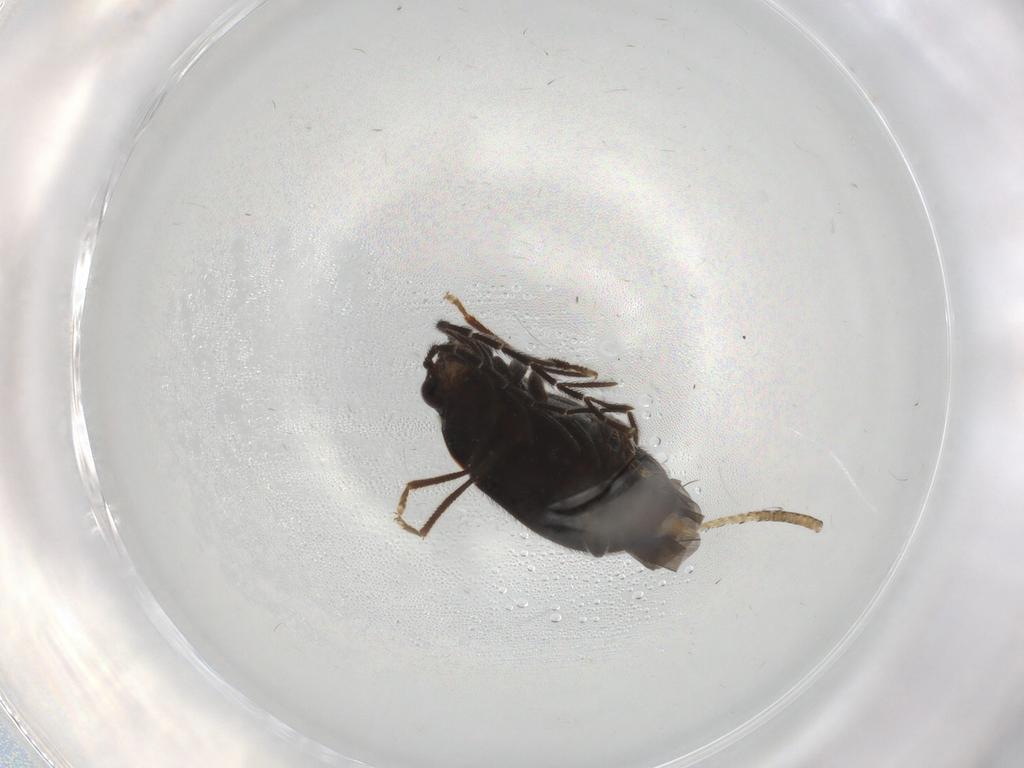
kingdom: Animalia
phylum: Arthropoda
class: Insecta
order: Coleoptera
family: Ptilodactylidae
